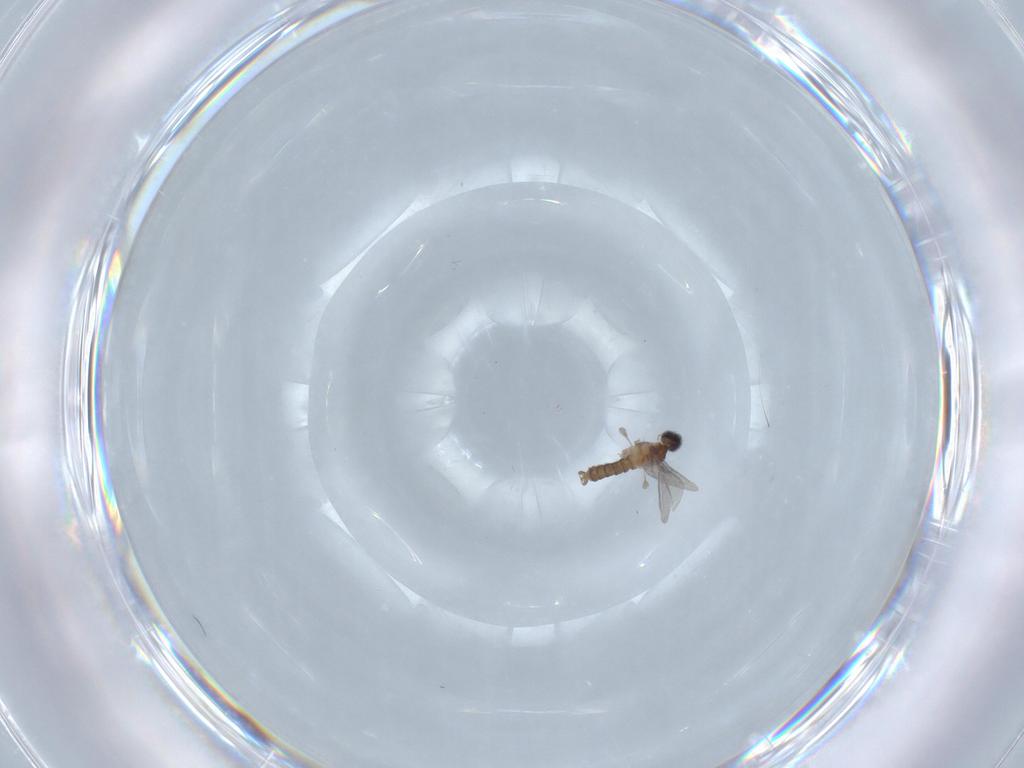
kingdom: Animalia
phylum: Arthropoda
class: Insecta
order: Diptera
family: Cecidomyiidae
